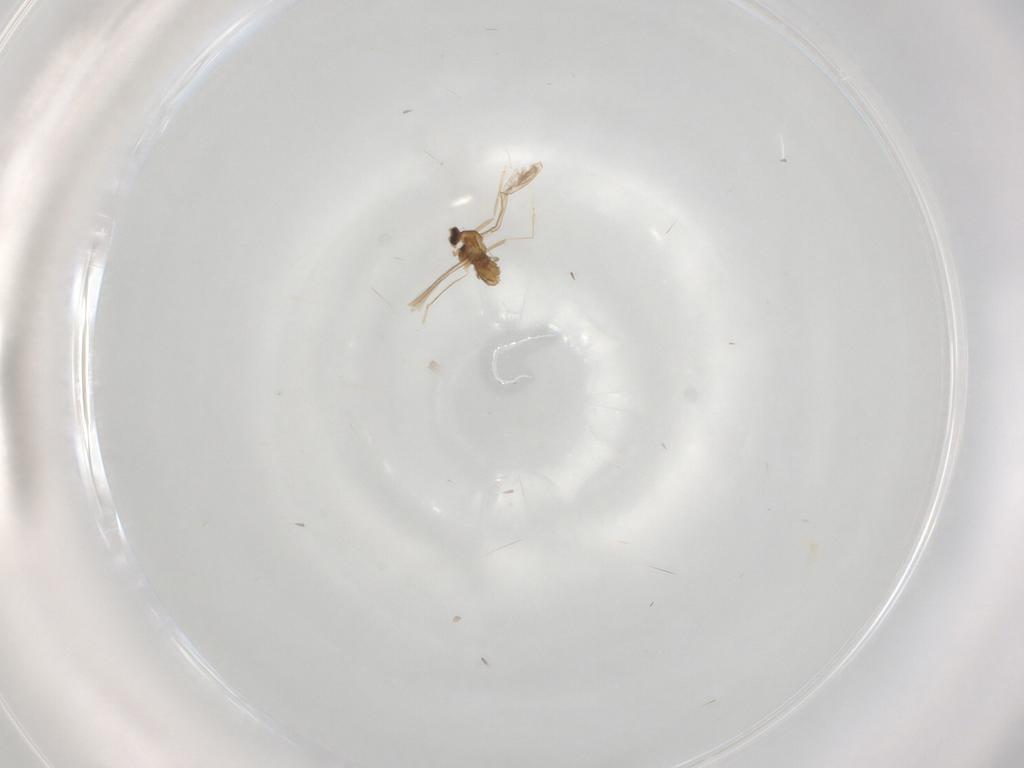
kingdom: Animalia
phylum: Arthropoda
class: Insecta
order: Diptera
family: Cecidomyiidae
